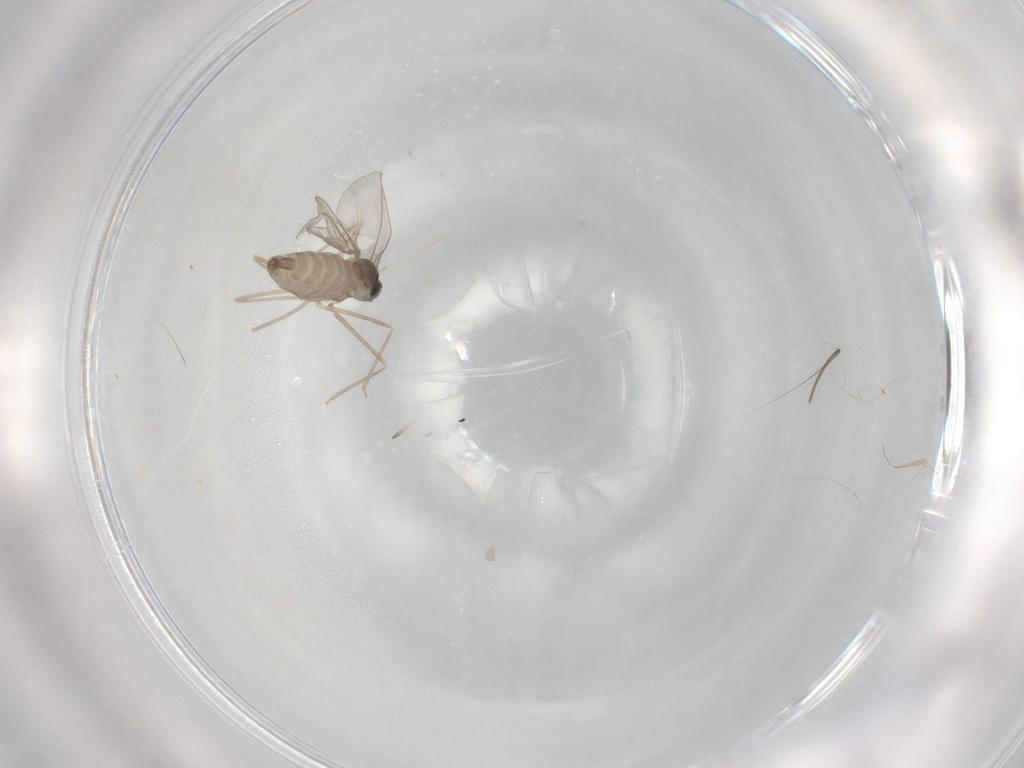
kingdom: Animalia
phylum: Arthropoda
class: Insecta
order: Diptera
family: Cecidomyiidae
